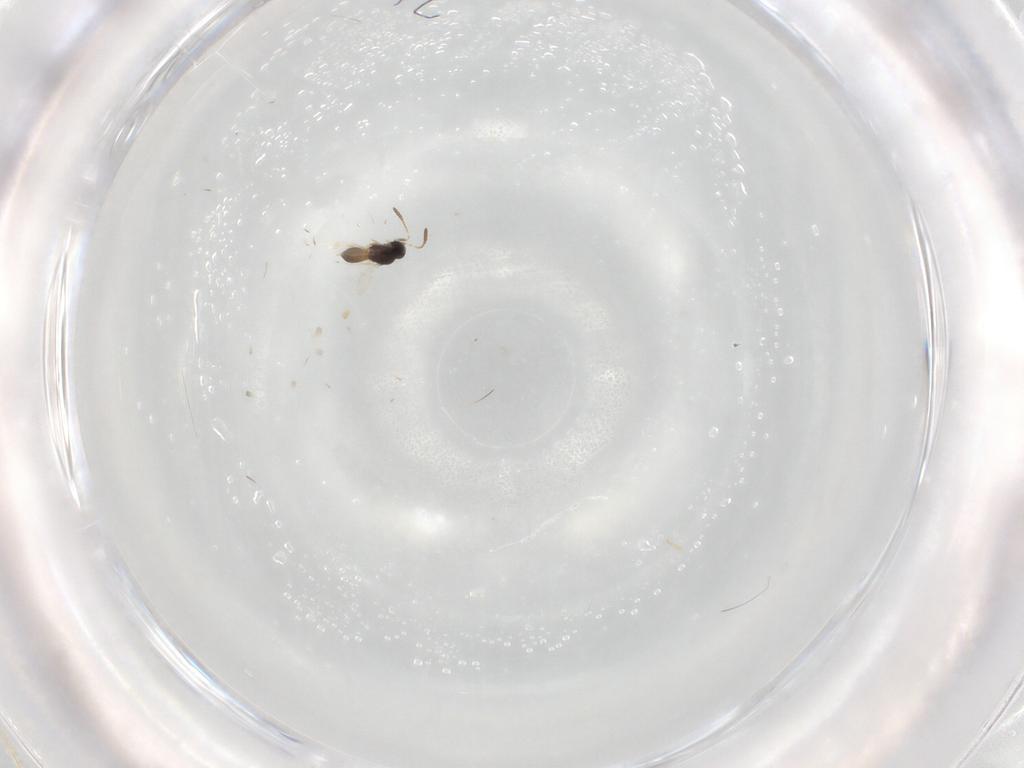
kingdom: Animalia
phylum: Arthropoda
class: Insecta
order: Hymenoptera
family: Scelionidae
